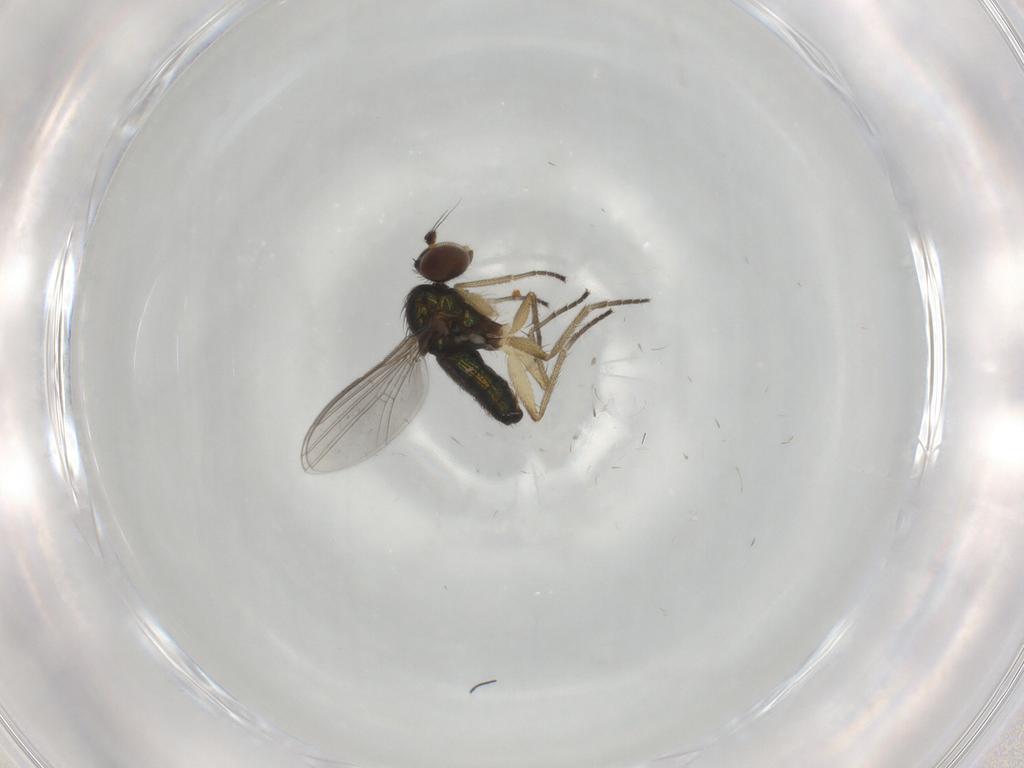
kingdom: Animalia
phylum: Arthropoda
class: Insecta
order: Diptera
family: Dolichopodidae
